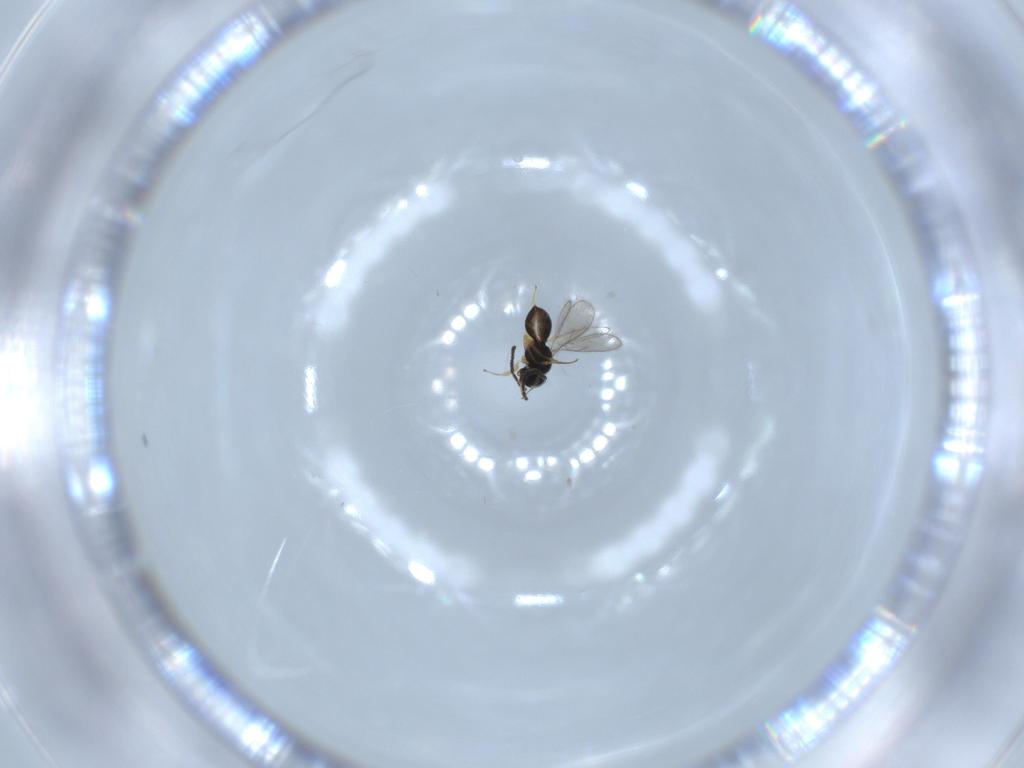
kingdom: Animalia
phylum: Arthropoda
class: Insecta
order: Hymenoptera
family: Scelionidae
